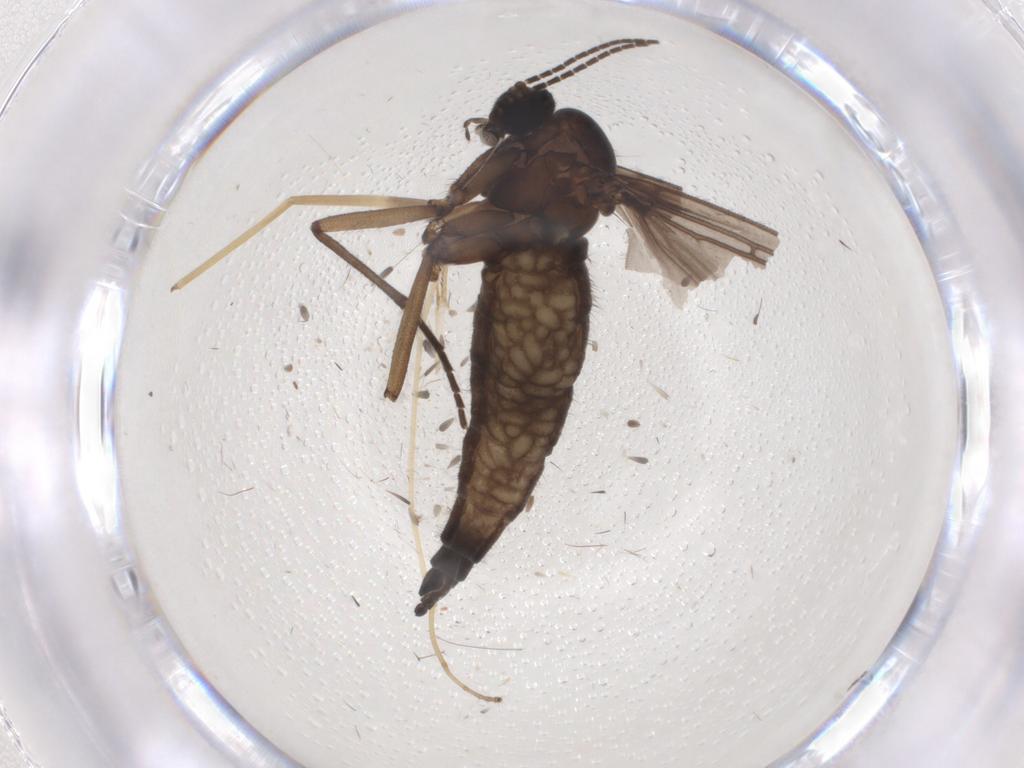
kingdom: Animalia
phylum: Arthropoda
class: Insecta
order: Diptera
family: Sciaridae
